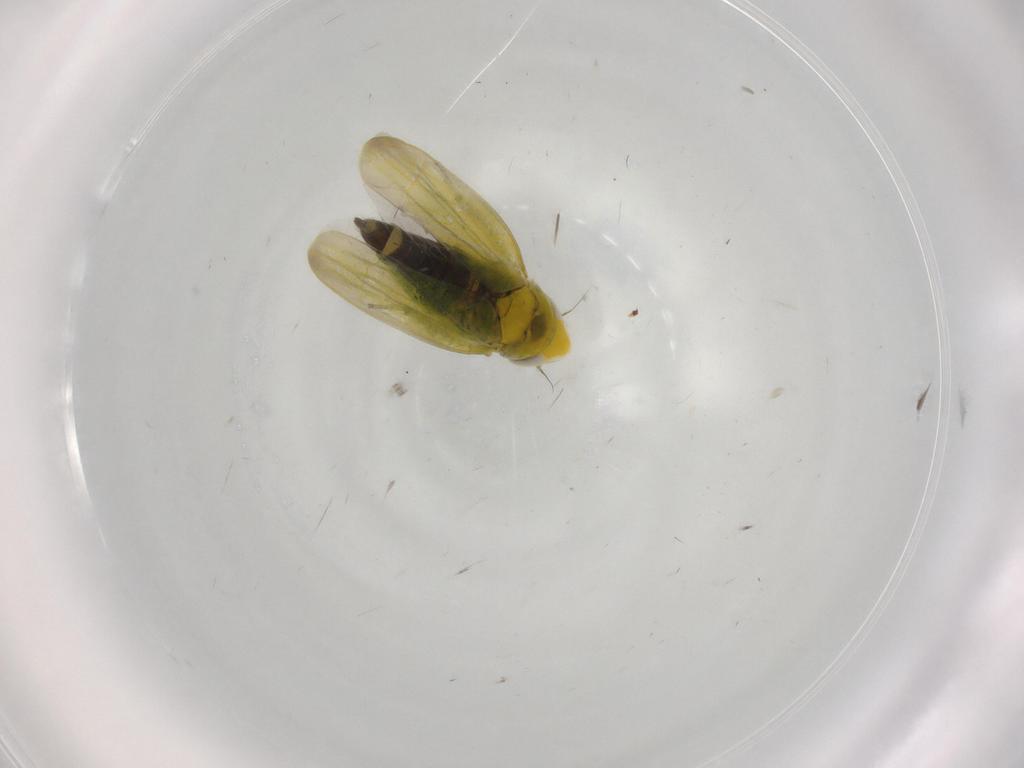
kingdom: Animalia
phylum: Arthropoda
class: Insecta
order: Hemiptera
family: Cicadellidae
